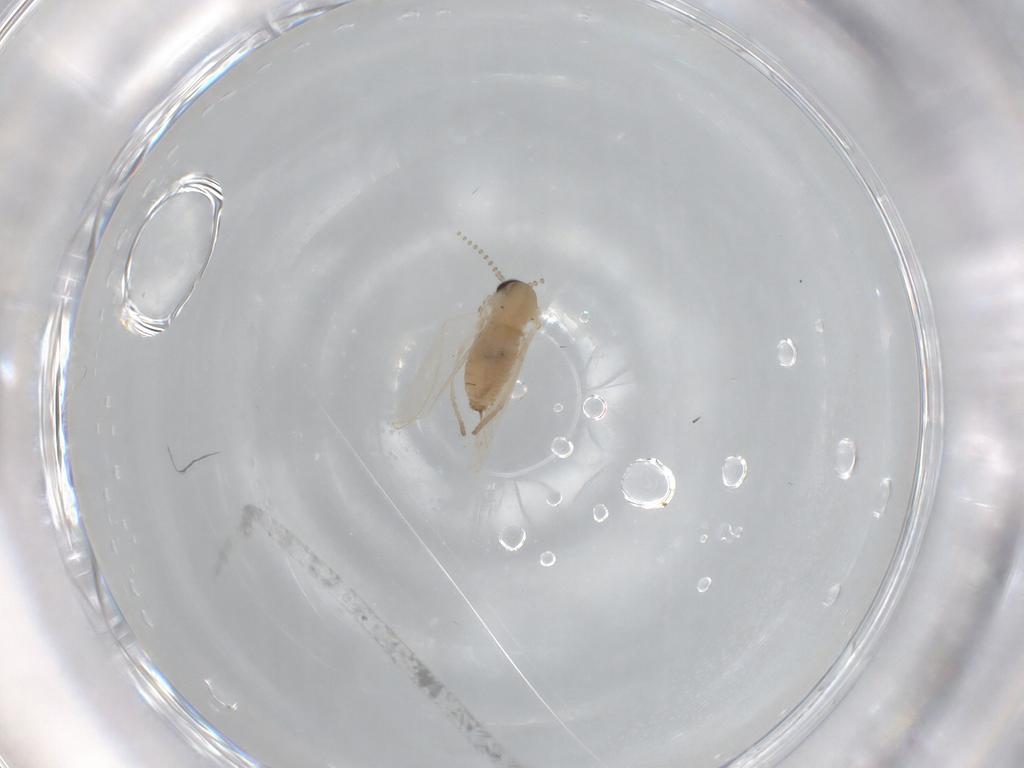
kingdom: Animalia
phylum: Arthropoda
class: Insecta
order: Diptera
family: Psychodidae
